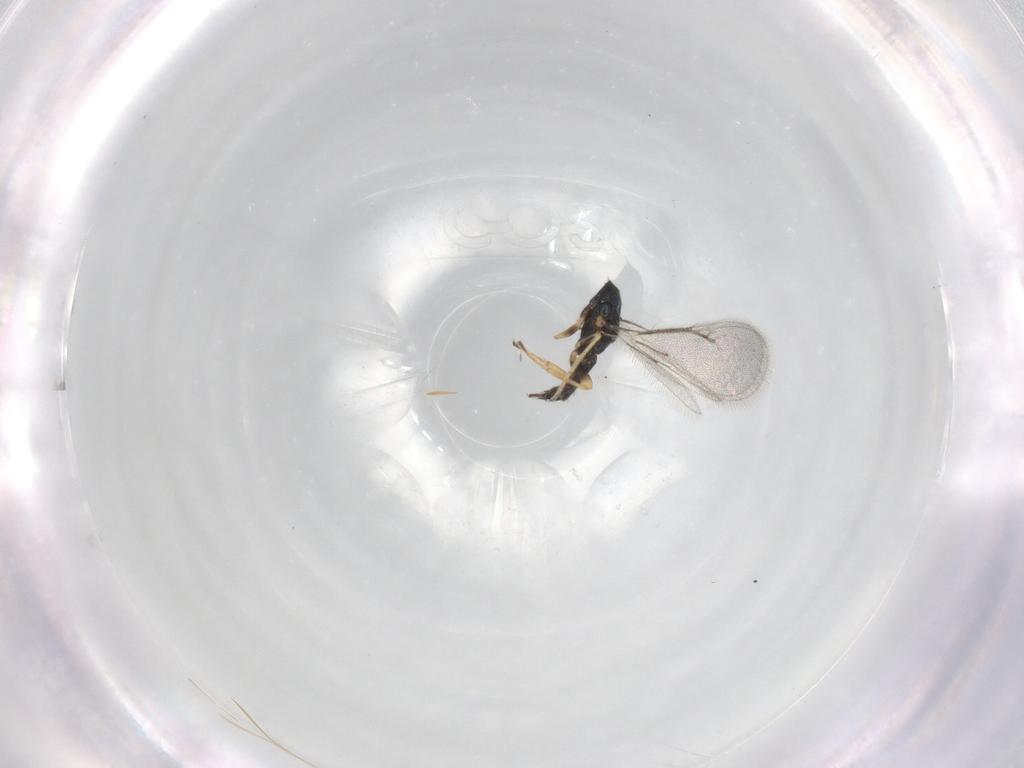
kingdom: Animalia
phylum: Arthropoda
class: Insecta
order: Hymenoptera
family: Eulophidae
